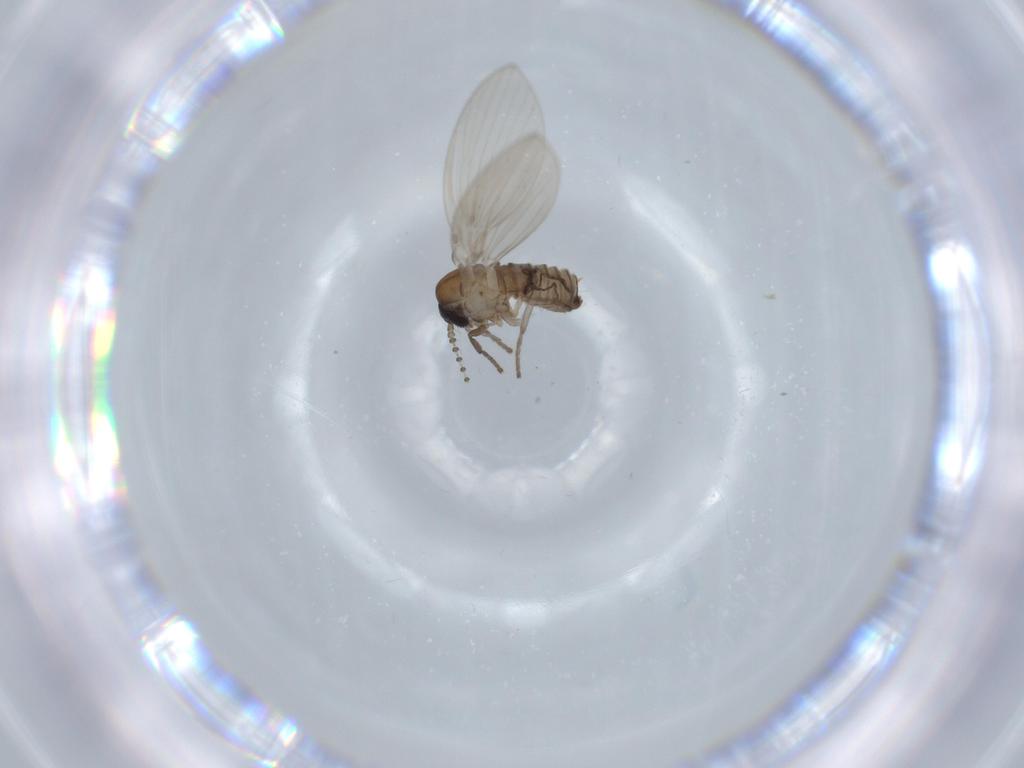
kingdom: Animalia
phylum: Arthropoda
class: Insecta
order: Diptera
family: Psychodidae
